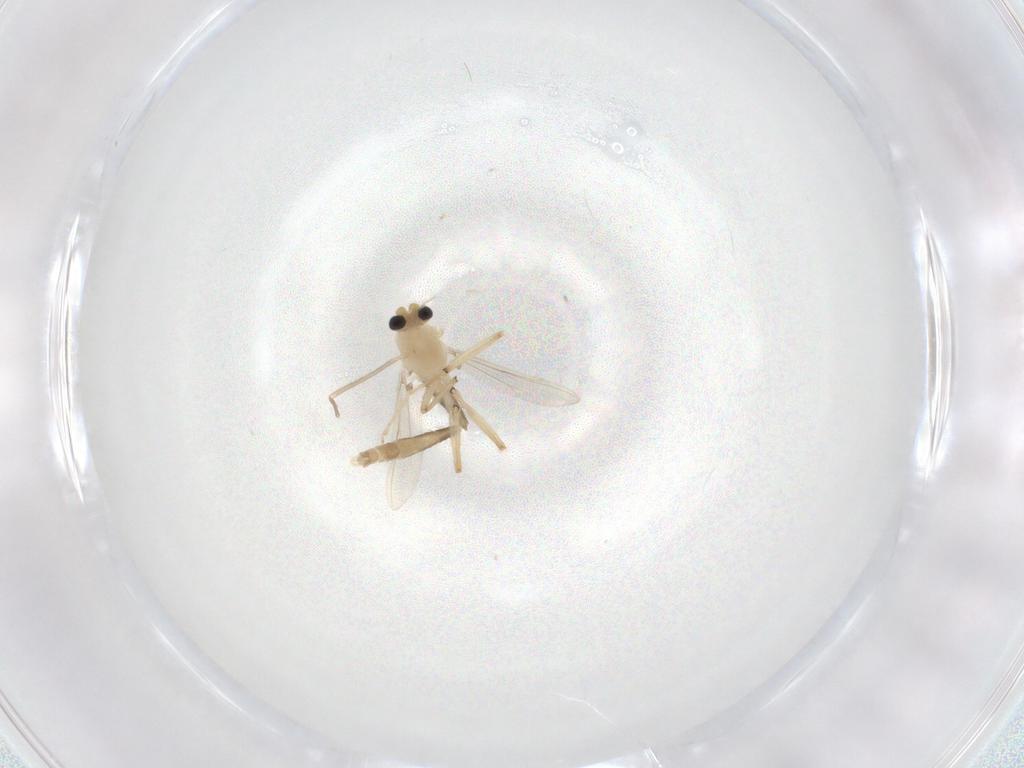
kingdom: Animalia
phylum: Arthropoda
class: Insecta
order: Diptera
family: Chironomidae
